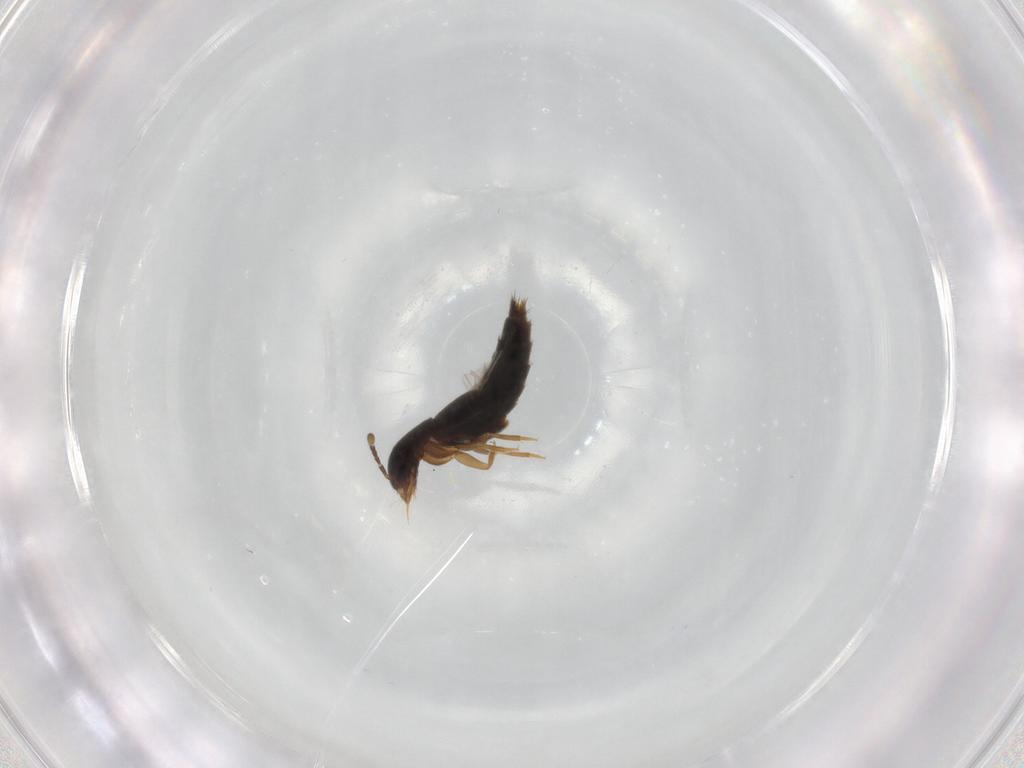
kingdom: Animalia
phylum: Arthropoda
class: Insecta
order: Coleoptera
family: Staphylinidae
